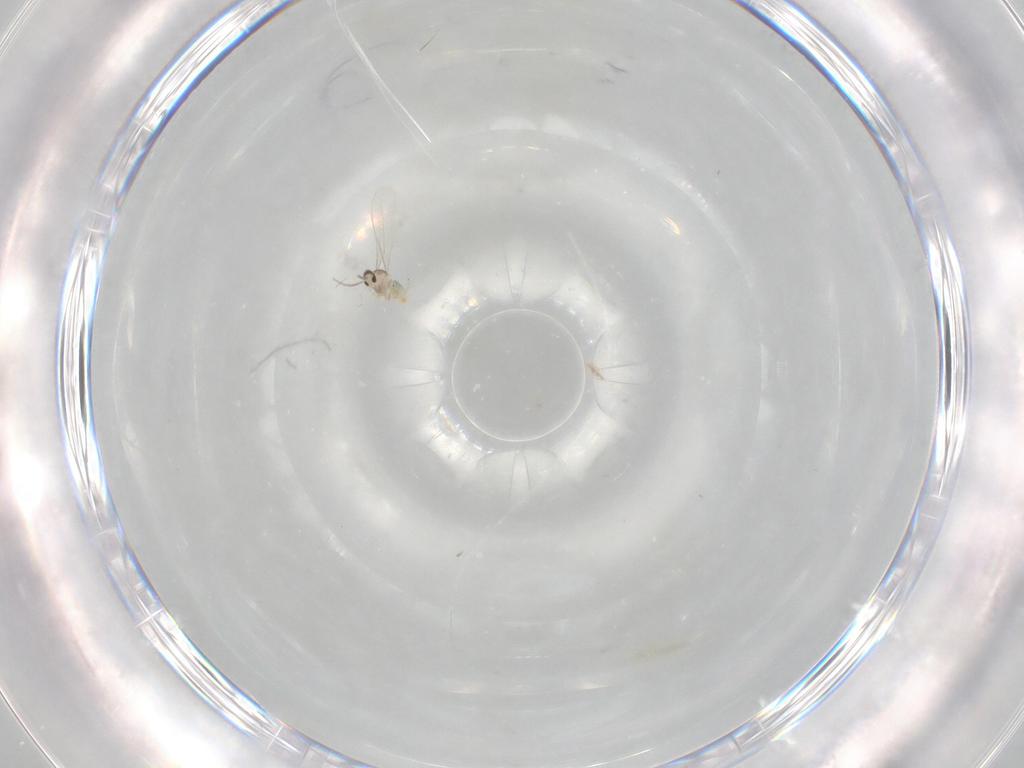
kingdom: Animalia
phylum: Arthropoda
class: Insecta
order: Diptera
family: Cecidomyiidae
